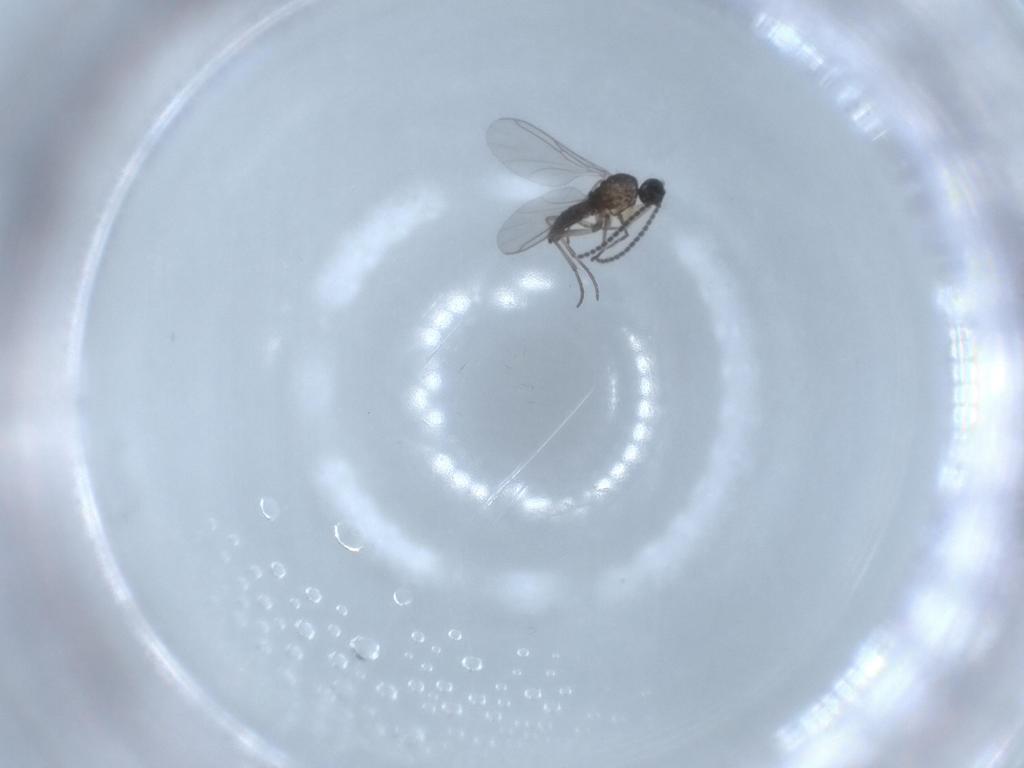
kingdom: Animalia
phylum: Arthropoda
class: Insecta
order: Diptera
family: Sciaridae
